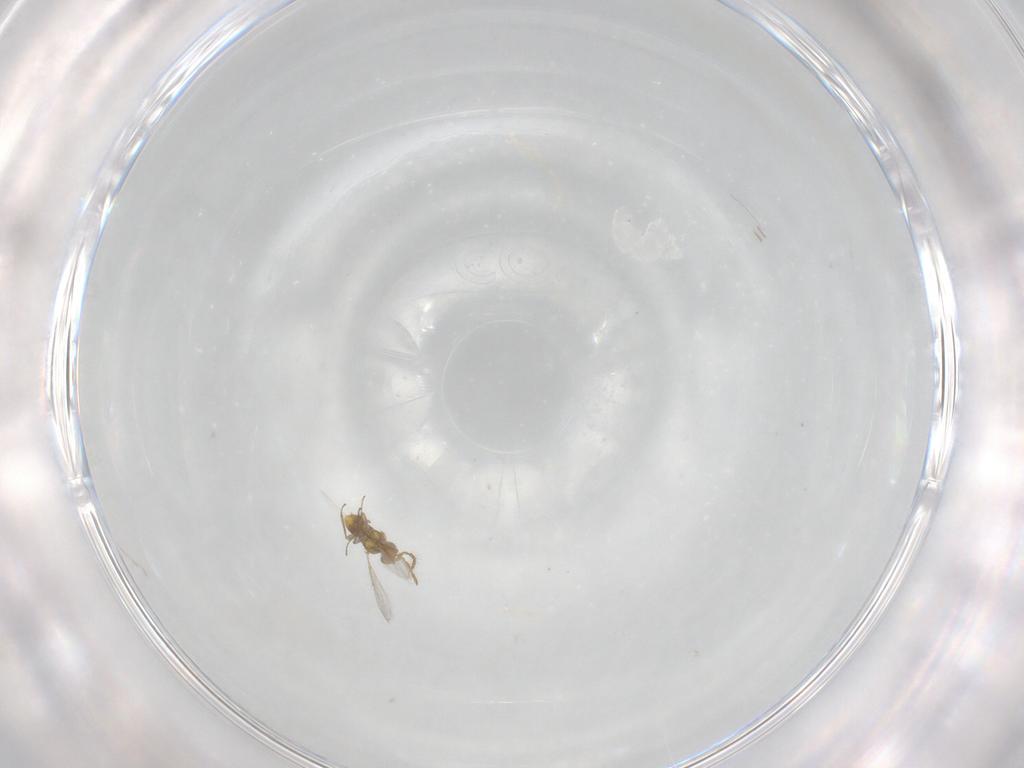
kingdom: Animalia
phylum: Arthropoda
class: Insecta
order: Hymenoptera
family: Aphelinidae
